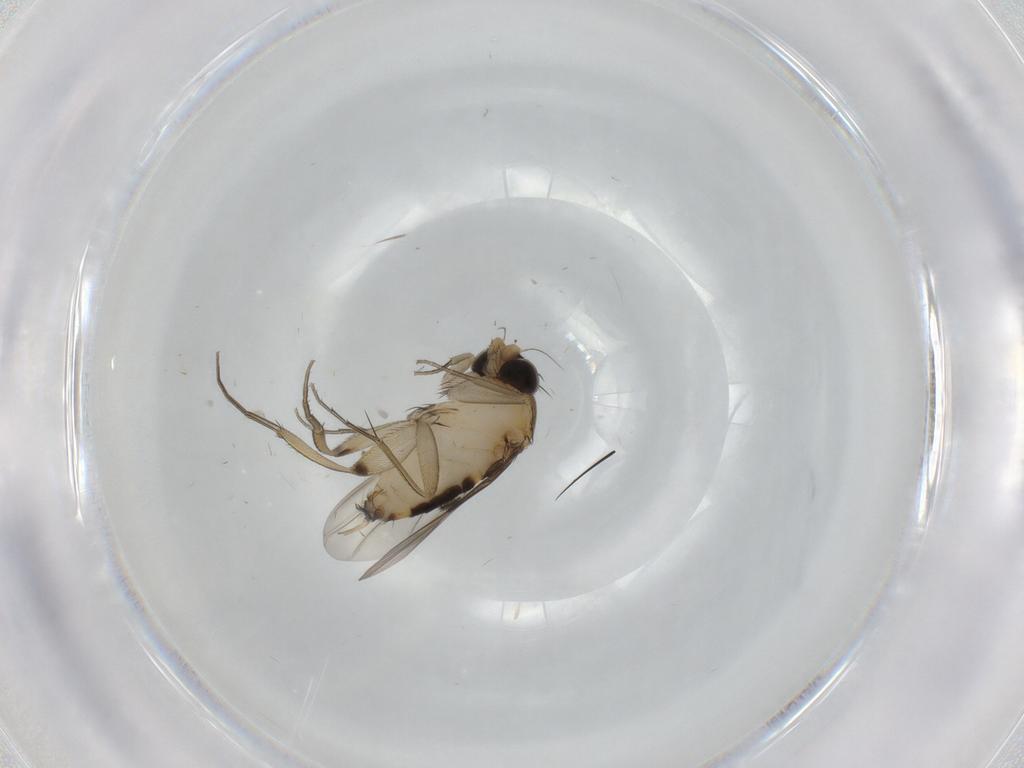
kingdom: Animalia
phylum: Arthropoda
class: Insecta
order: Diptera
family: Phoridae
